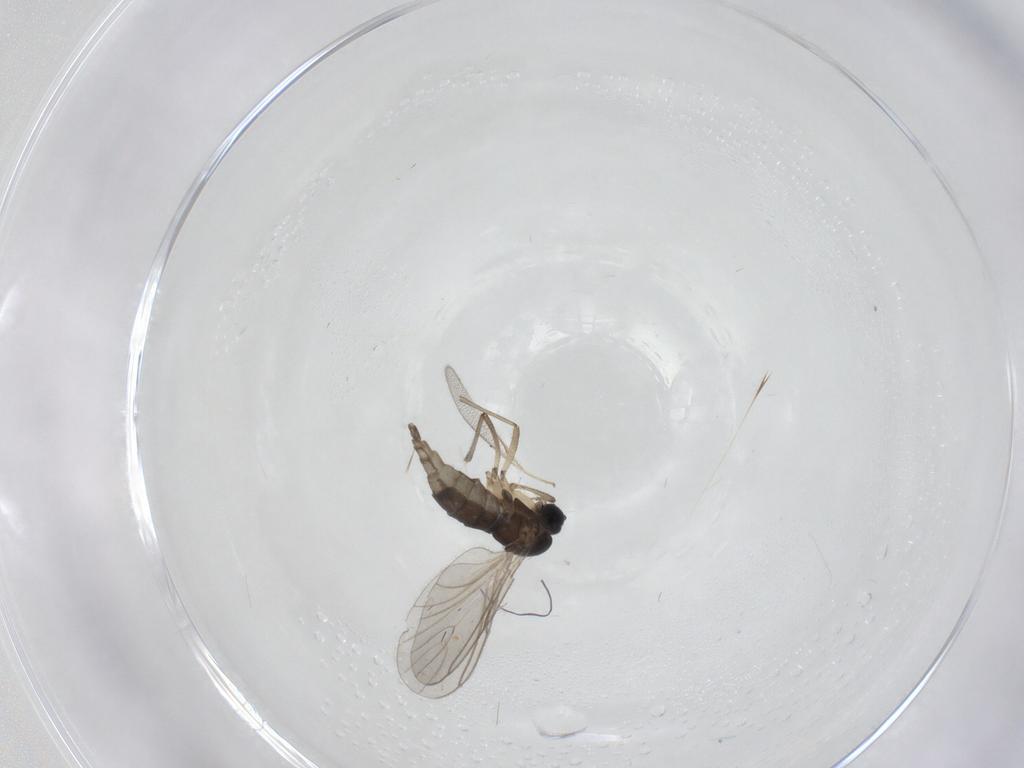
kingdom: Animalia
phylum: Arthropoda
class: Insecta
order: Diptera
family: Sciaridae
